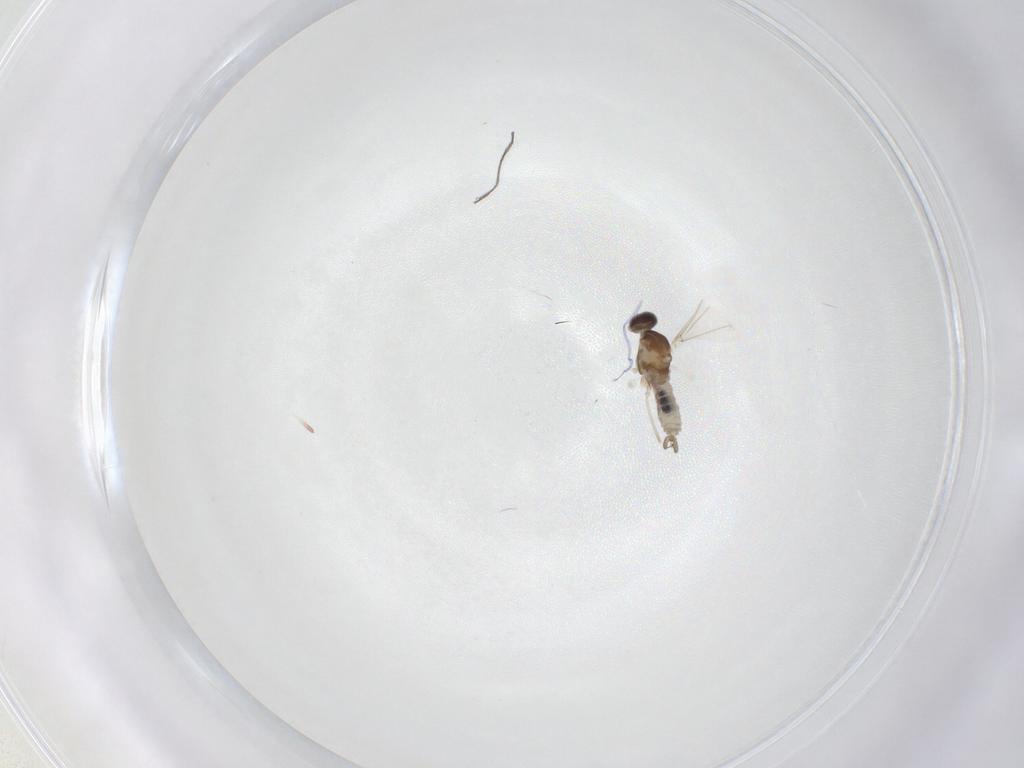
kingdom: Animalia
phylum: Arthropoda
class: Insecta
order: Diptera
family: Cecidomyiidae
